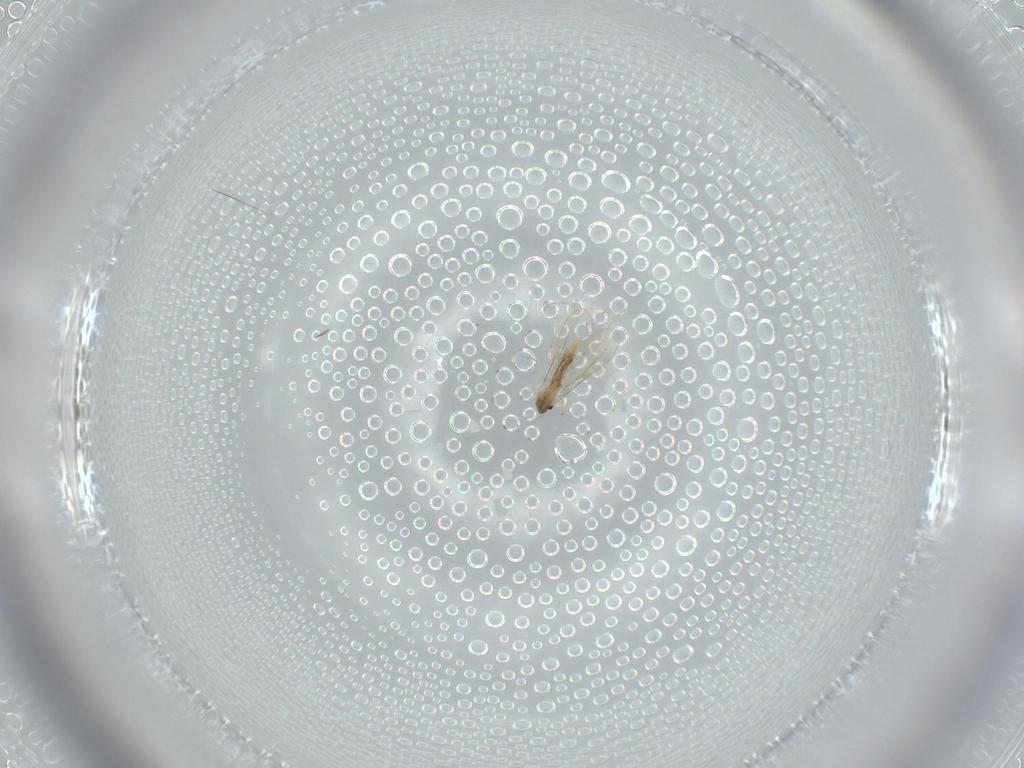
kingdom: Animalia
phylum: Arthropoda
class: Insecta
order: Diptera
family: Cecidomyiidae
